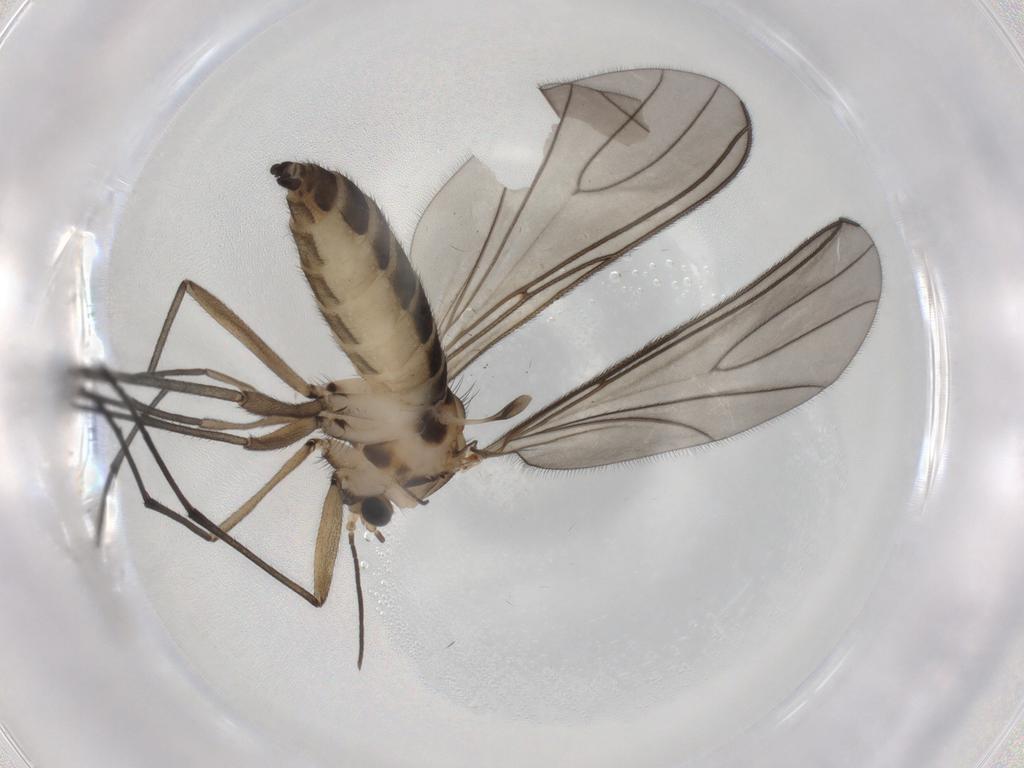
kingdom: Animalia
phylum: Arthropoda
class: Insecta
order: Diptera
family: Sciaridae
